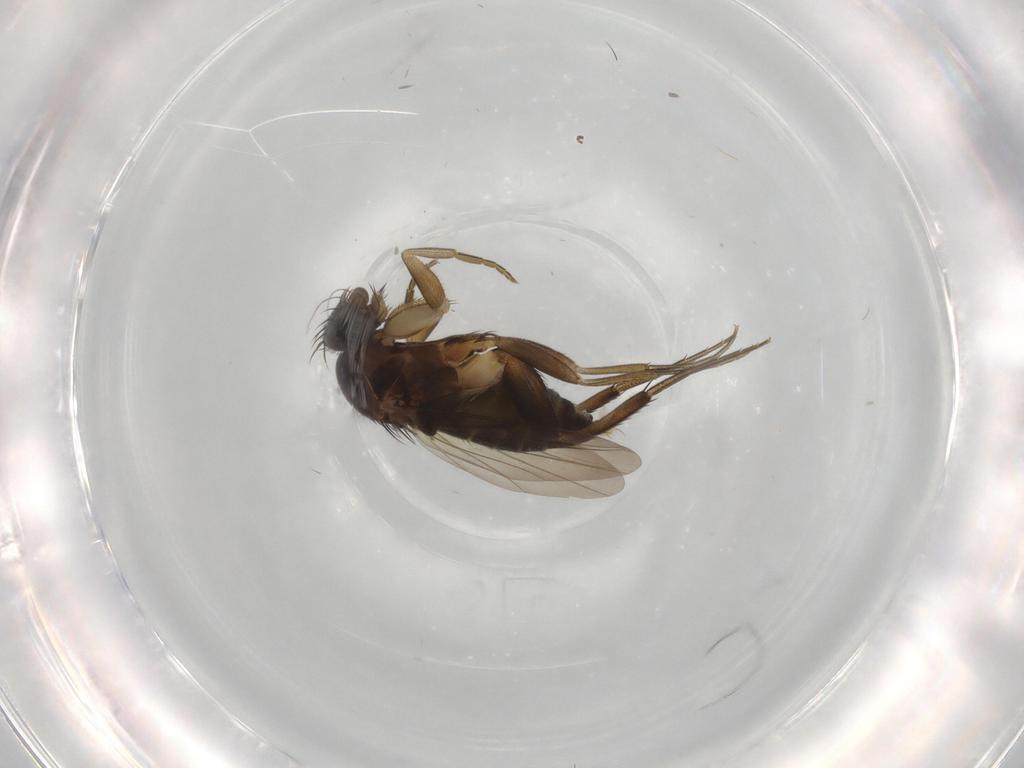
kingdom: Animalia
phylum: Arthropoda
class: Insecta
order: Diptera
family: Phoridae
